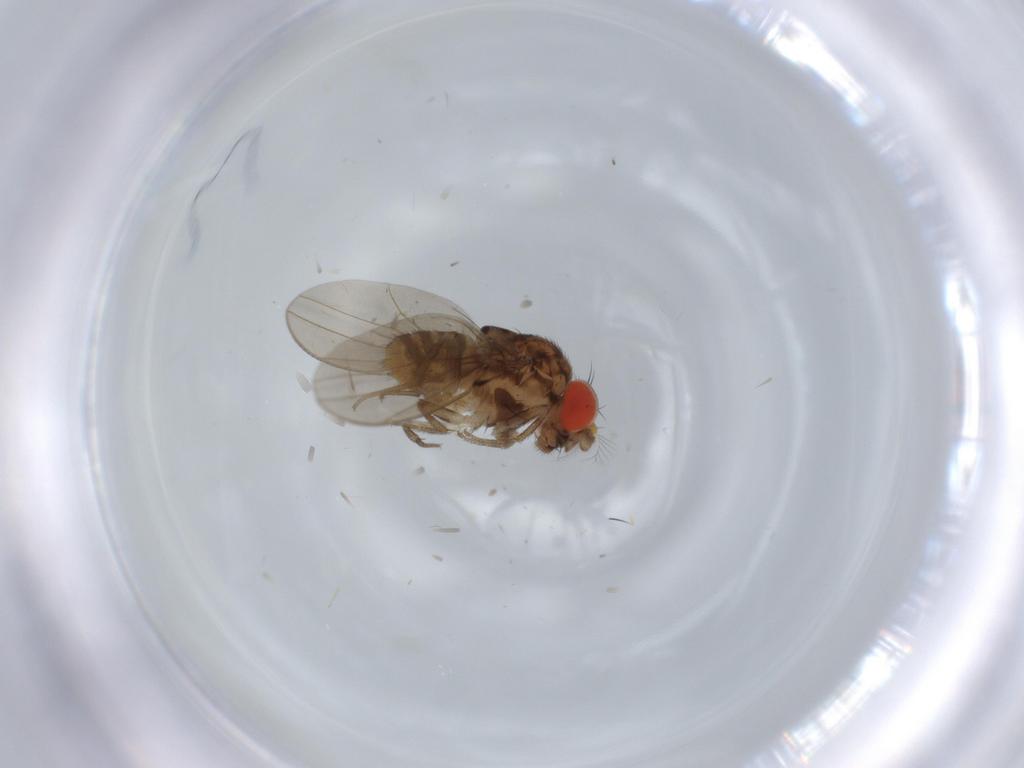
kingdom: Animalia
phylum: Arthropoda
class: Insecta
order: Diptera
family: Drosophilidae
